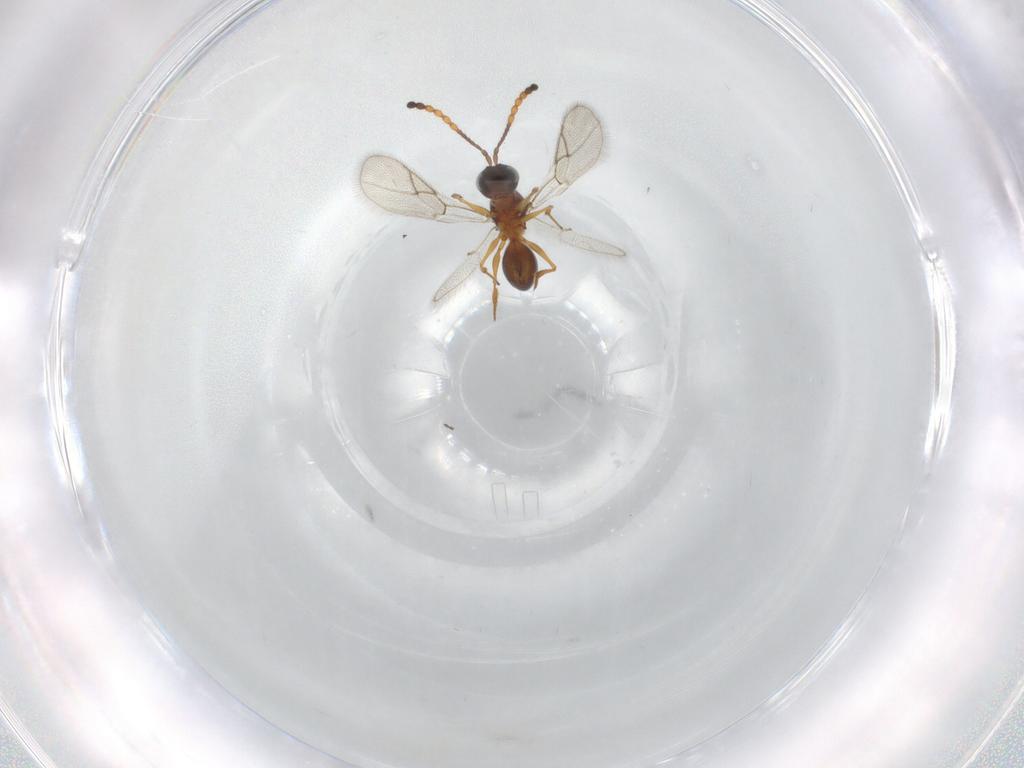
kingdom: Animalia
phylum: Arthropoda
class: Insecta
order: Hymenoptera
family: Figitidae
